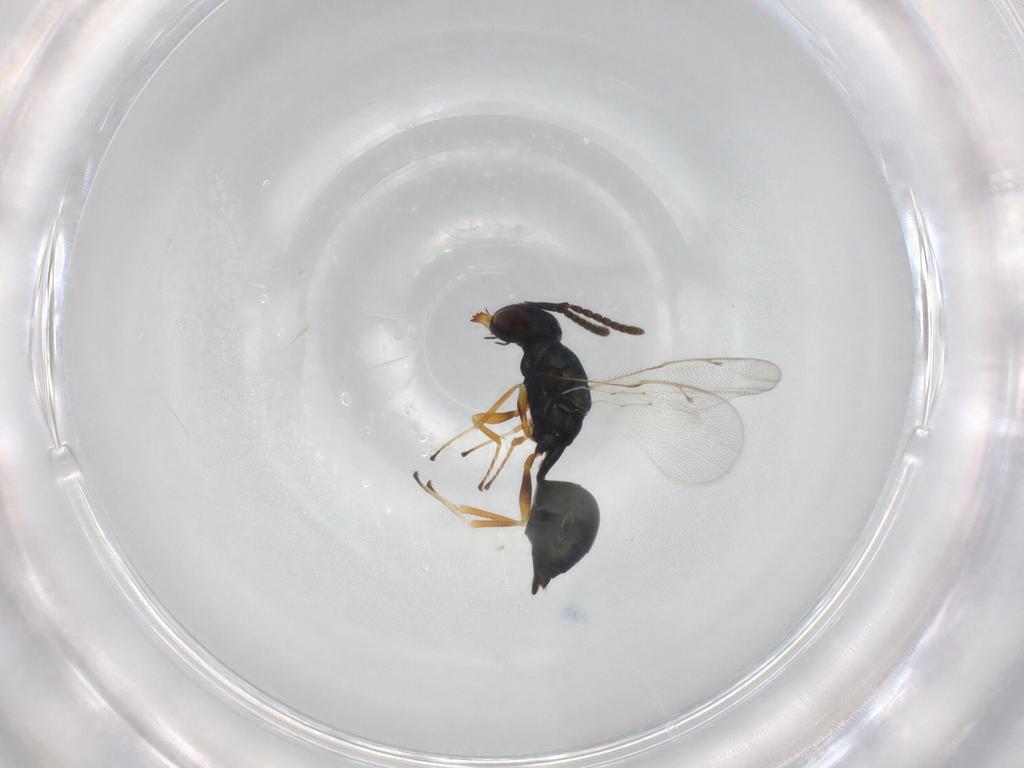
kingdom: Animalia
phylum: Arthropoda
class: Insecta
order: Hymenoptera
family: Pteromalidae
